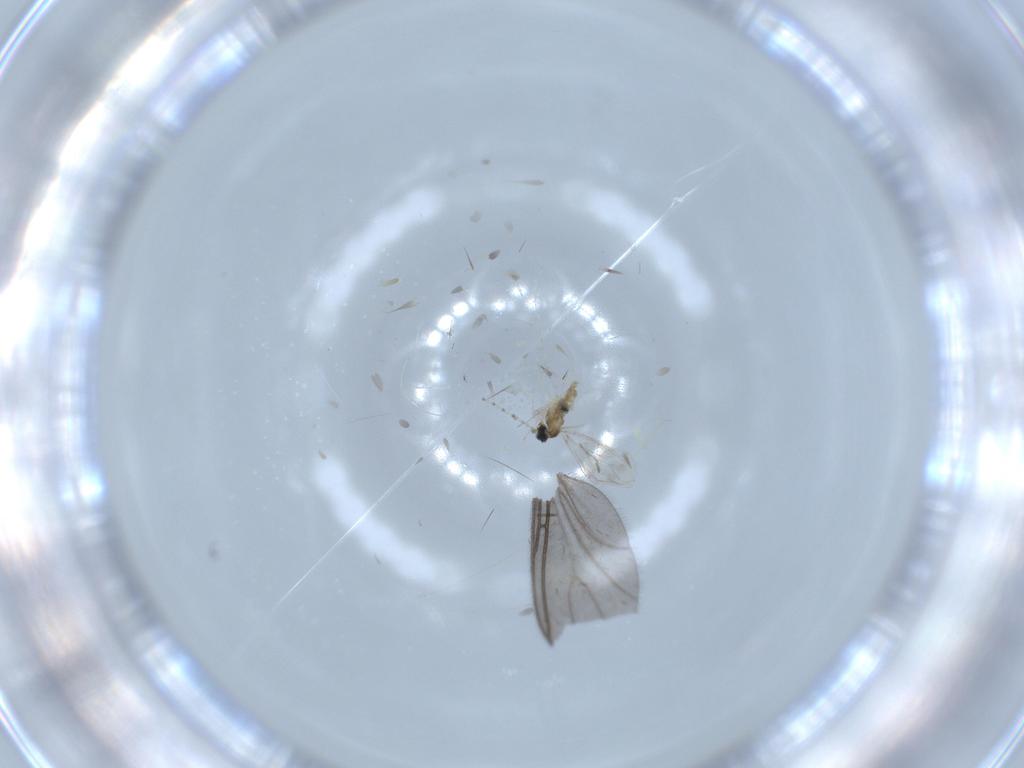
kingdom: Animalia
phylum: Arthropoda
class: Insecta
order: Diptera
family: Cecidomyiidae
